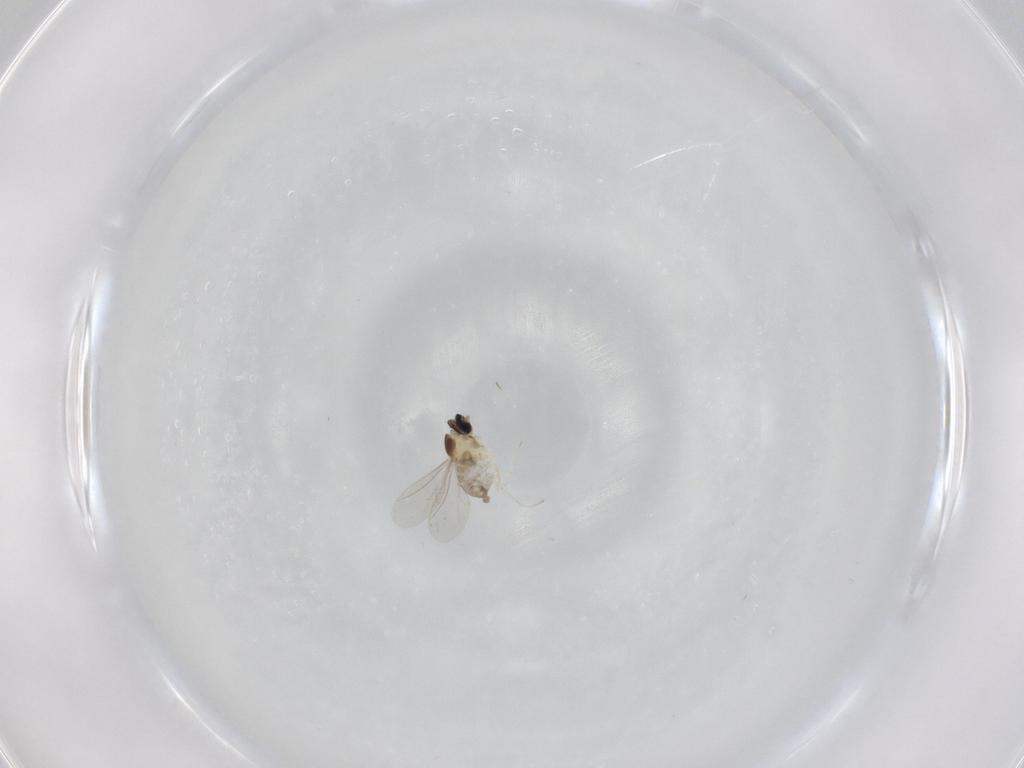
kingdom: Animalia
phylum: Arthropoda
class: Insecta
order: Diptera
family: Cecidomyiidae
